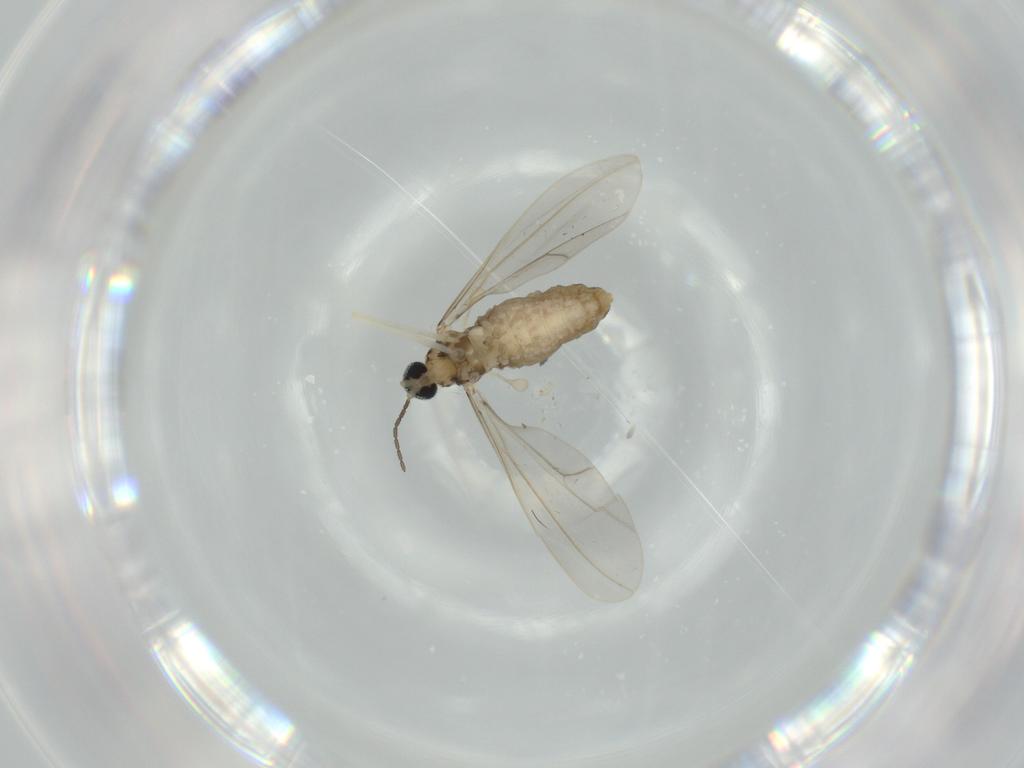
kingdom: Animalia
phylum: Arthropoda
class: Insecta
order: Diptera
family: Cecidomyiidae
